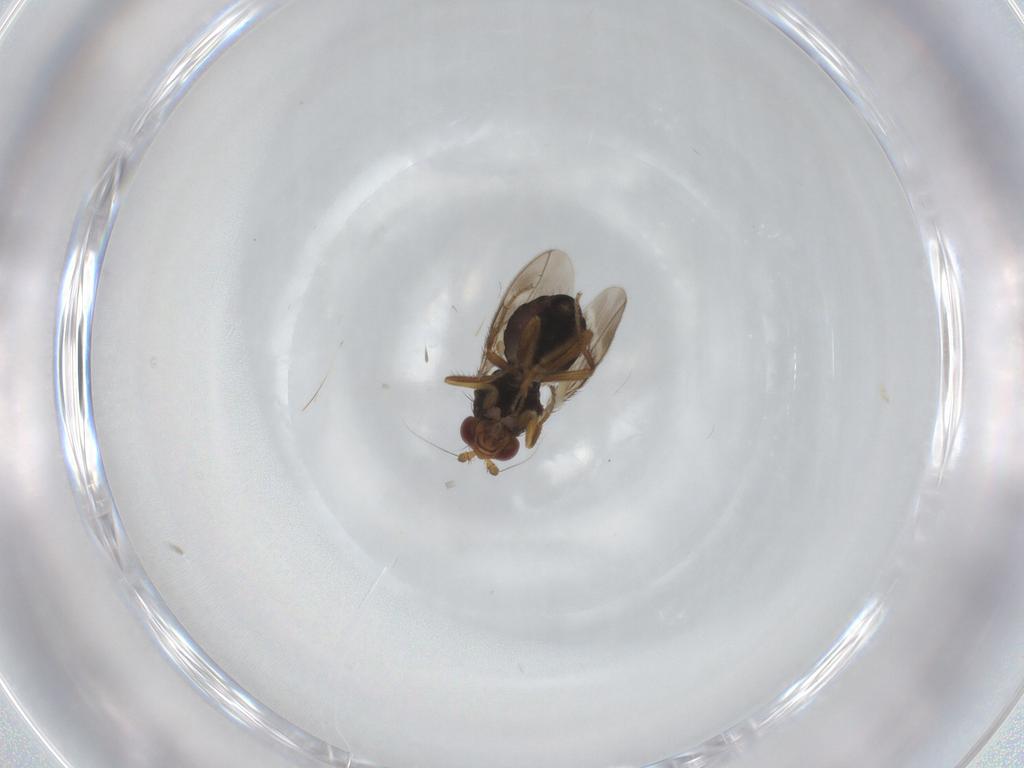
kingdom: Animalia
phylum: Arthropoda
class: Insecta
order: Diptera
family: Sphaeroceridae
